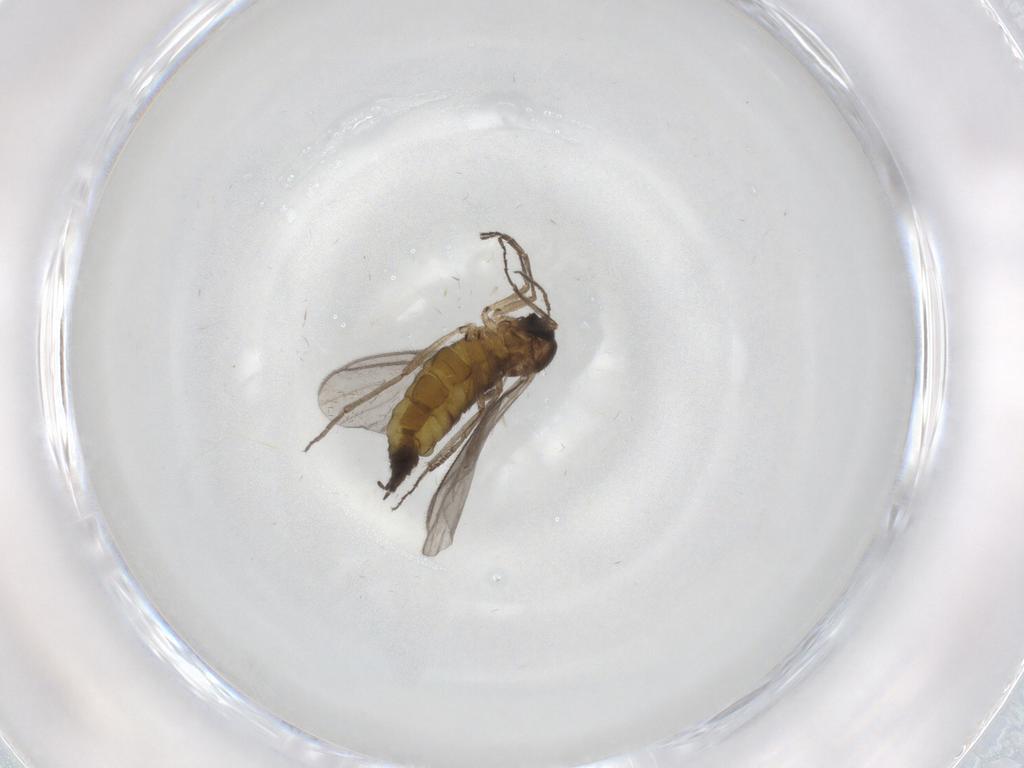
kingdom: Animalia
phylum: Arthropoda
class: Insecta
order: Diptera
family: Sciaridae
